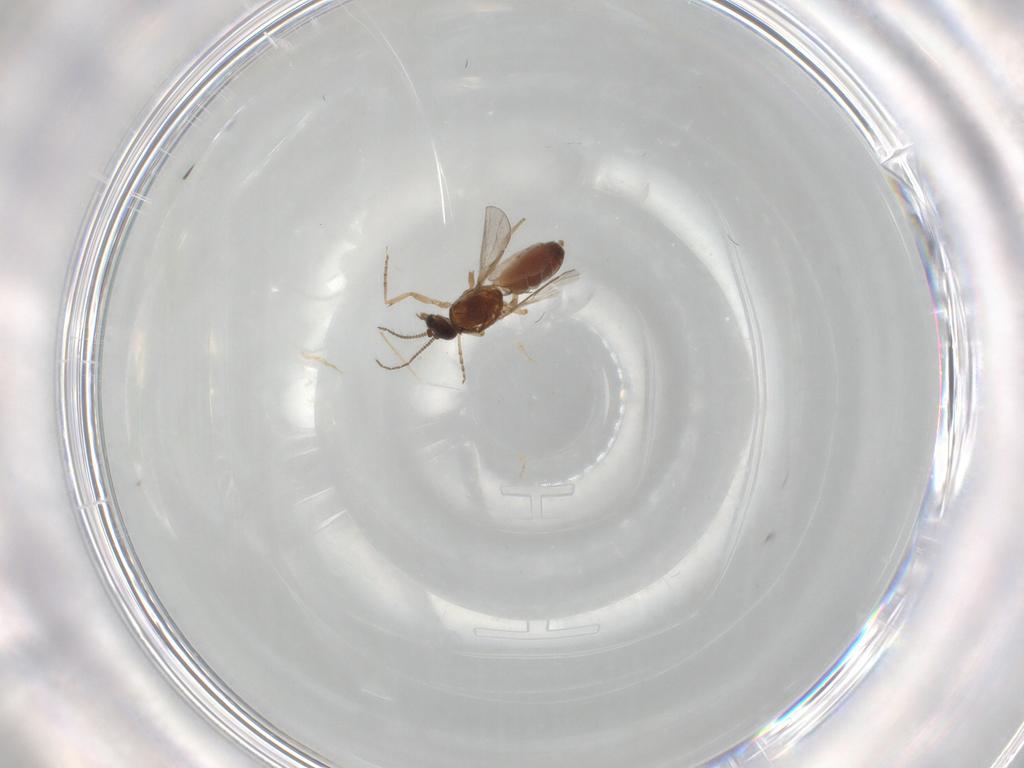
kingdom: Animalia
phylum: Arthropoda
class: Insecta
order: Diptera
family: Ceratopogonidae
